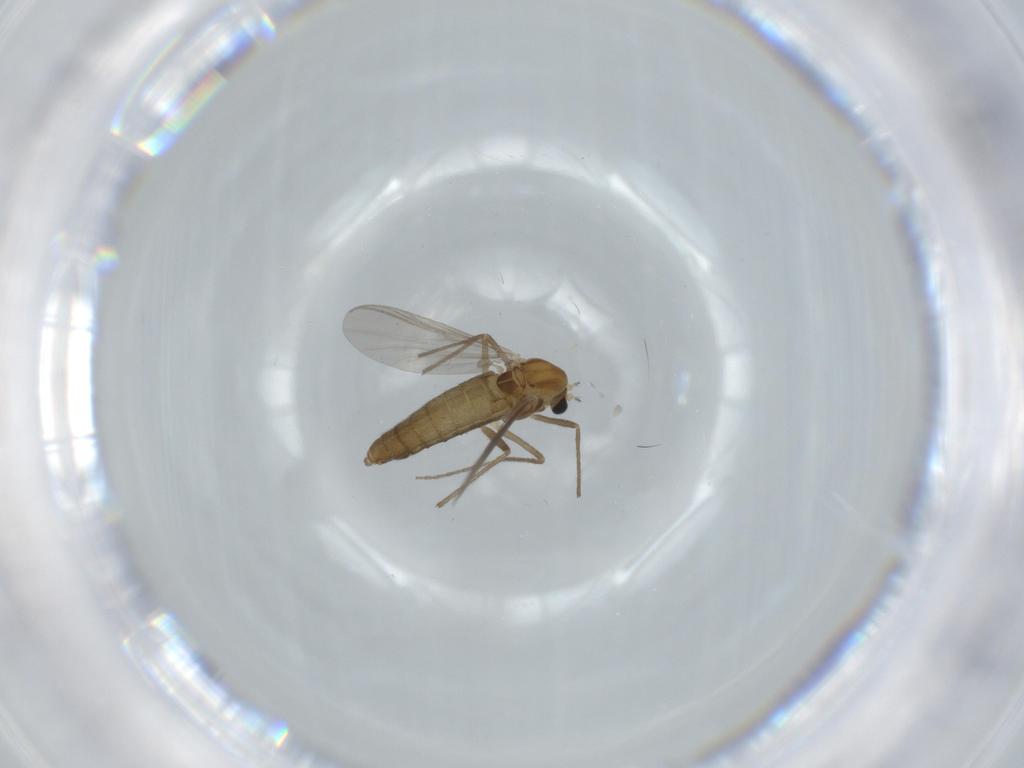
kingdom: Animalia
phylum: Arthropoda
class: Insecta
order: Diptera
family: Chironomidae
